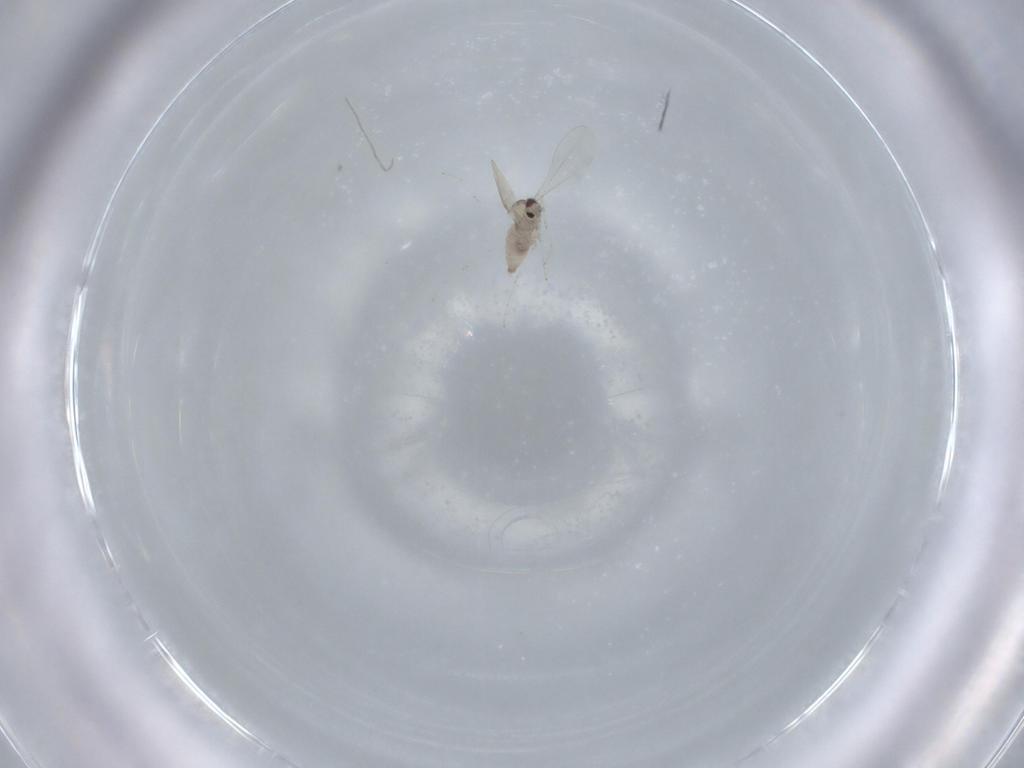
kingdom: Animalia
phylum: Arthropoda
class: Insecta
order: Diptera
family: Cecidomyiidae
